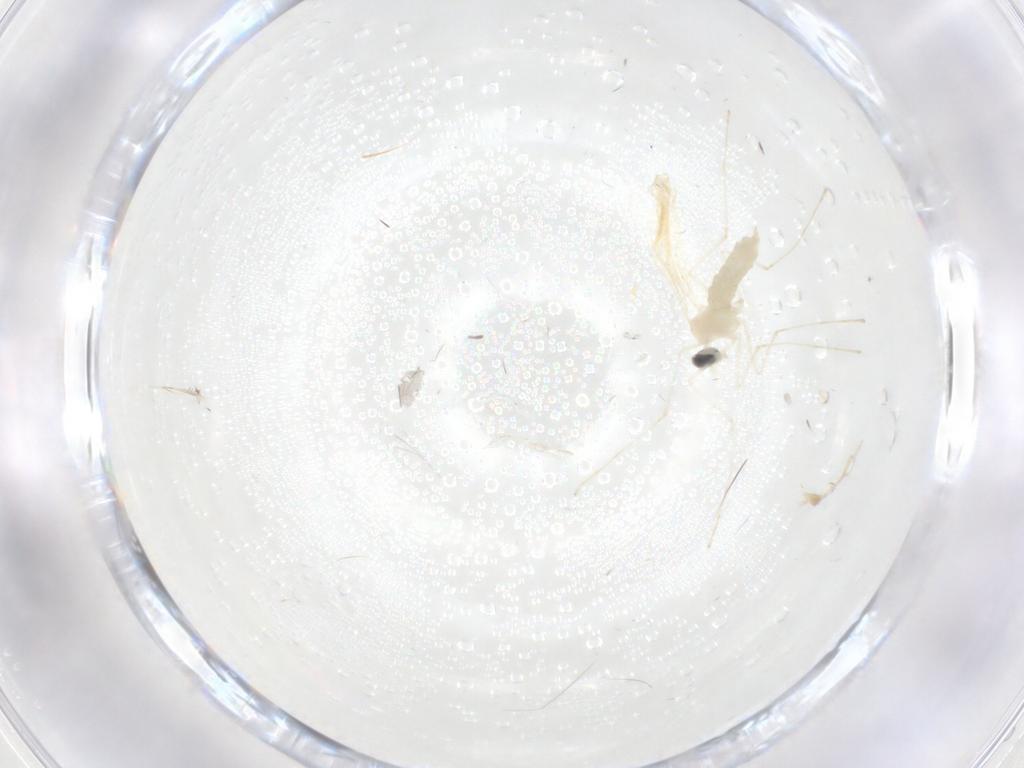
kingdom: Animalia
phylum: Arthropoda
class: Insecta
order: Diptera
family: Cecidomyiidae
